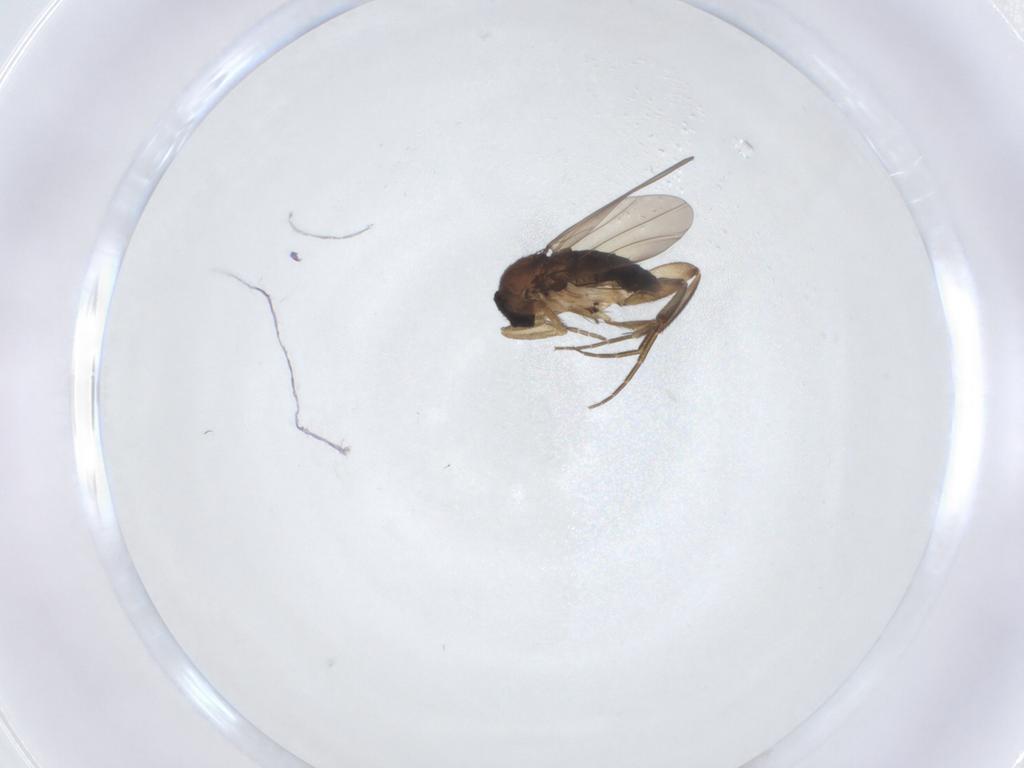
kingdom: Animalia
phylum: Arthropoda
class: Insecta
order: Diptera
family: Phoridae
